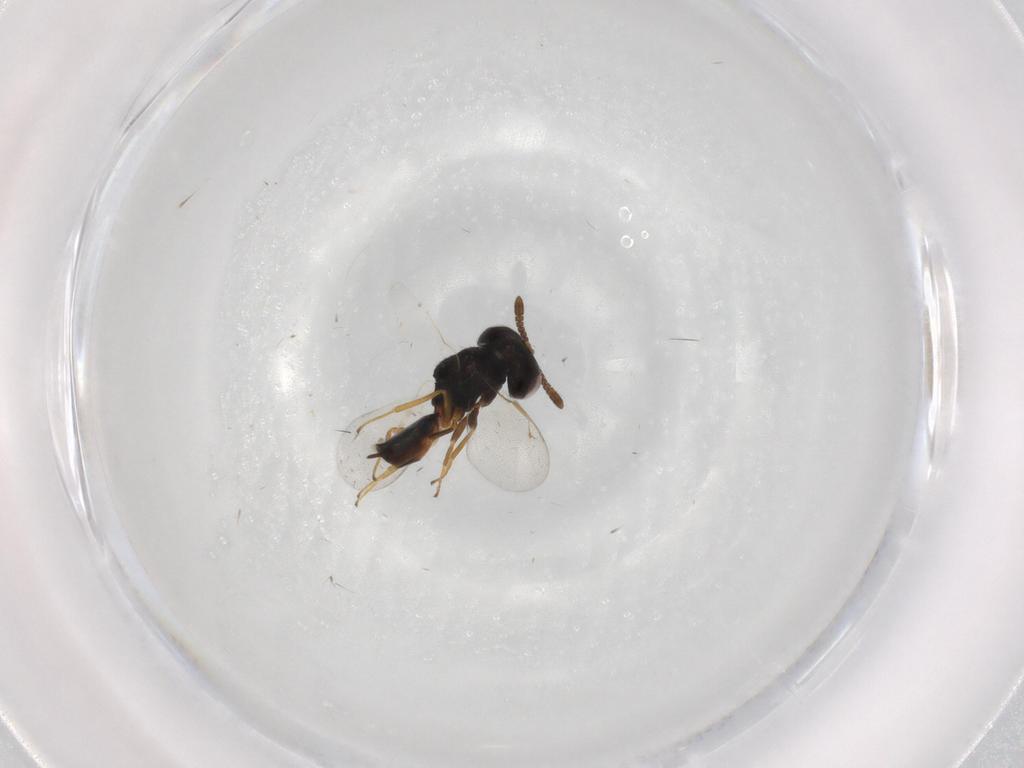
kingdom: Animalia
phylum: Arthropoda
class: Insecta
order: Hymenoptera
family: Pteromalidae
